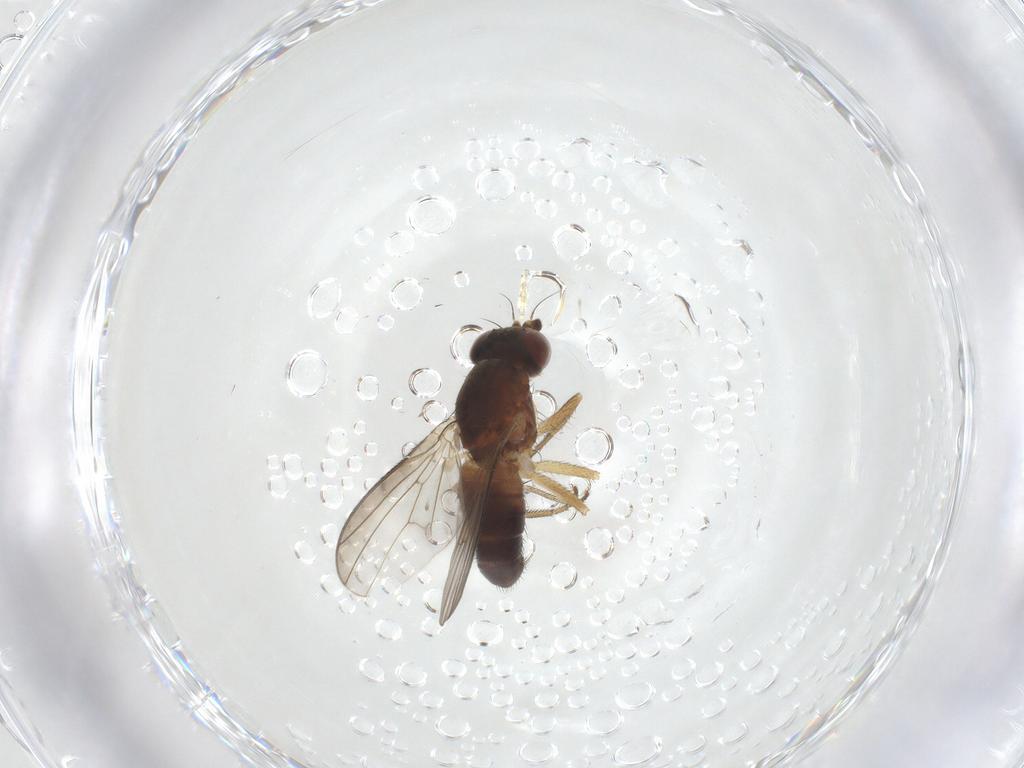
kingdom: Animalia
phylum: Arthropoda
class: Insecta
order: Diptera
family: Heleomyzidae
